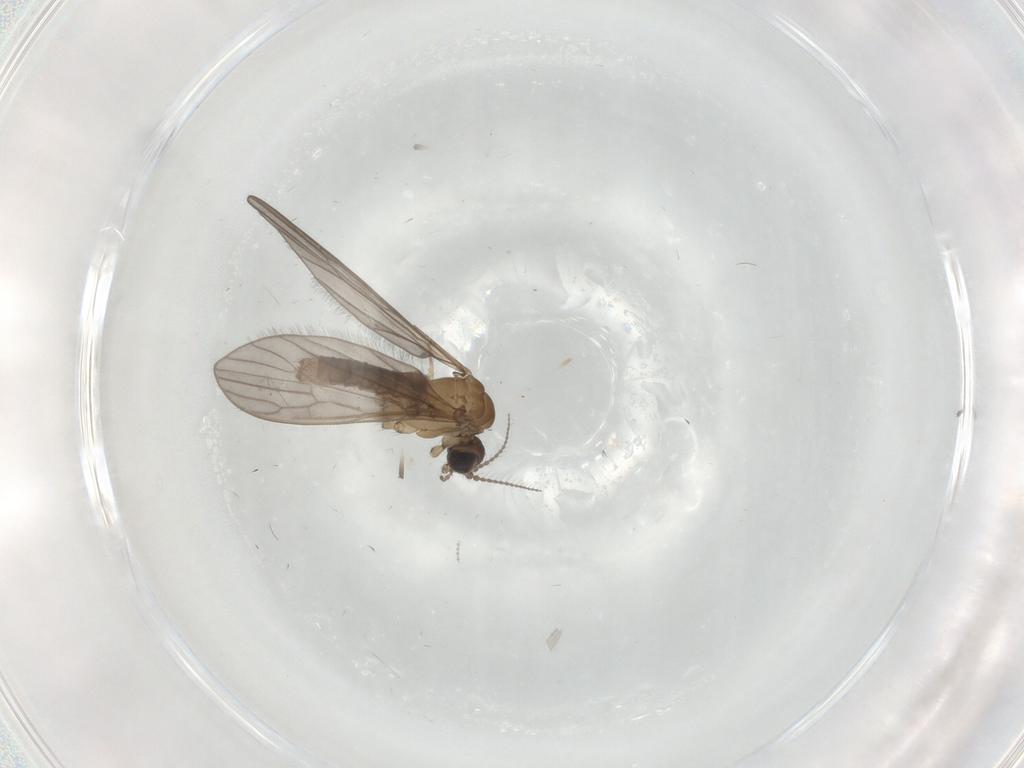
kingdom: Animalia
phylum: Arthropoda
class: Insecta
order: Diptera
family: Limoniidae
